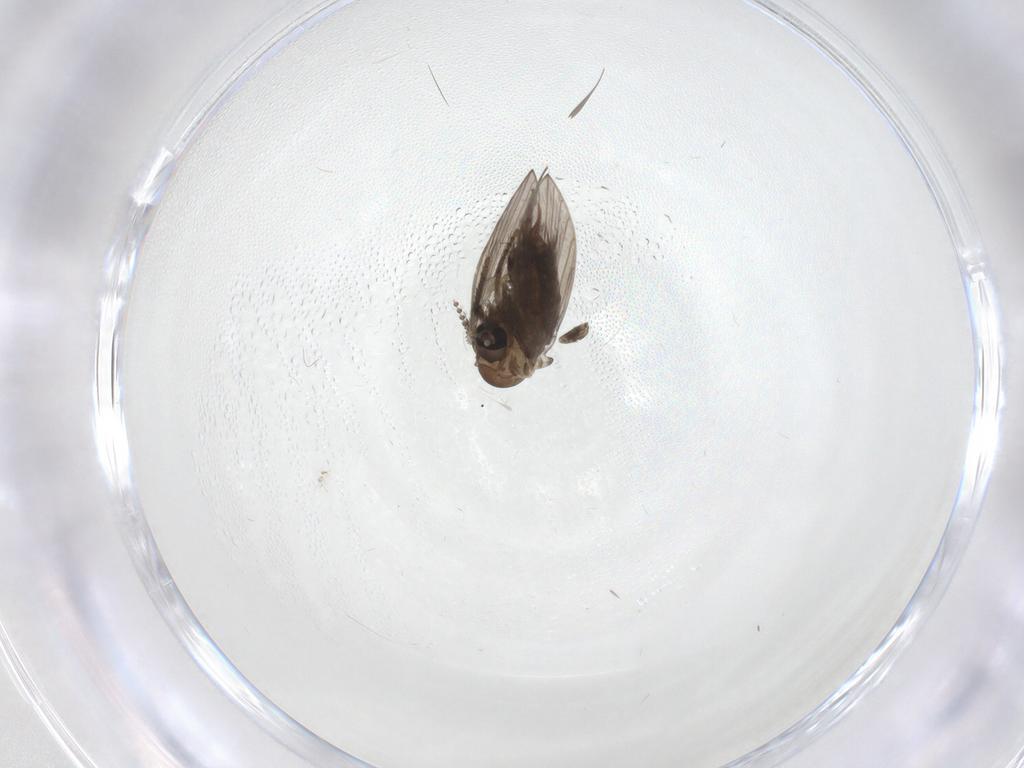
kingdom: Animalia
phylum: Arthropoda
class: Insecta
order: Diptera
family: Psychodidae
